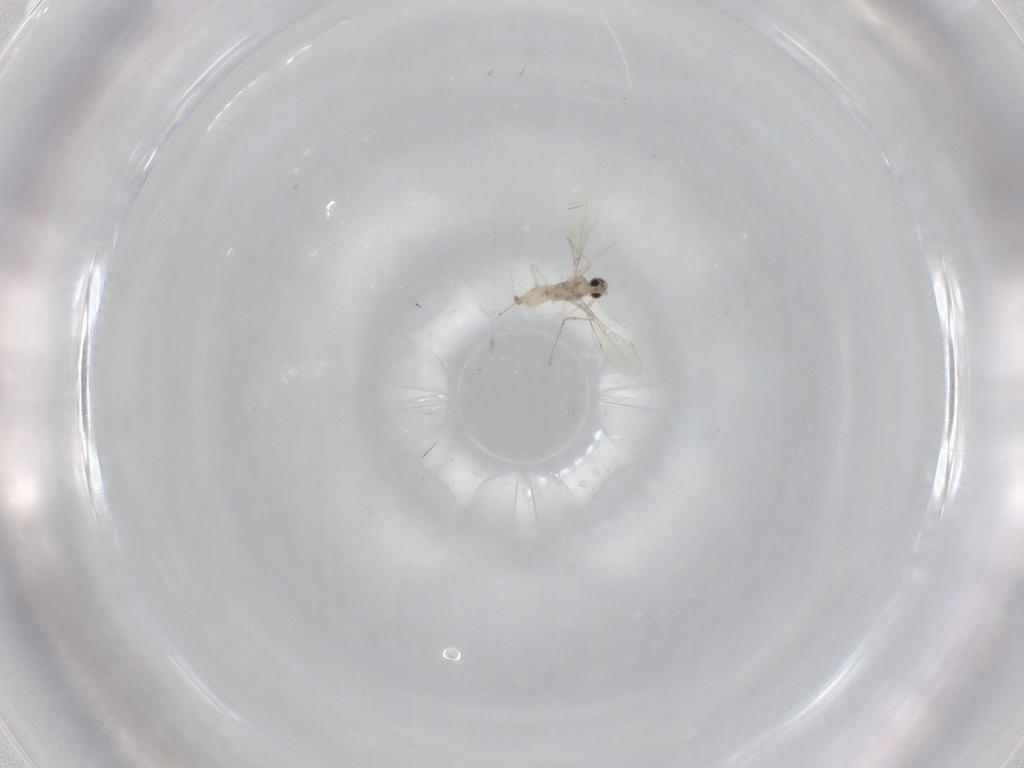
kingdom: Animalia
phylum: Arthropoda
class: Insecta
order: Diptera
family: Cecidomyiidae
